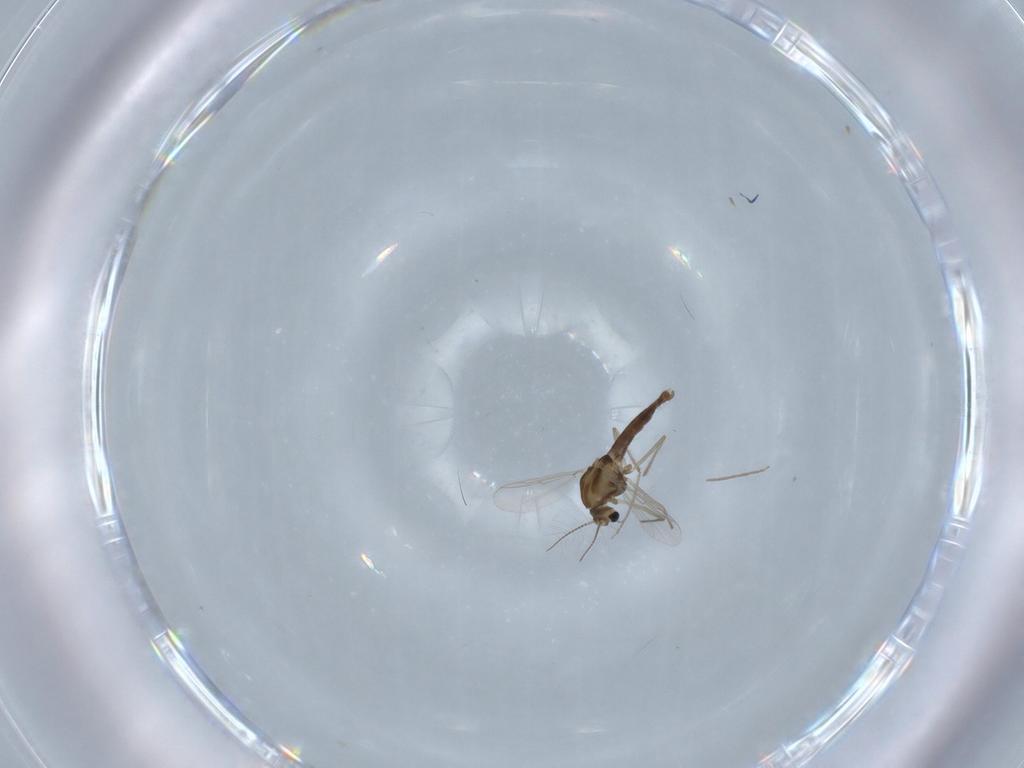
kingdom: Animalia
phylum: Arthropoda
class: Insecta
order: Diptera
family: Chironomidae
